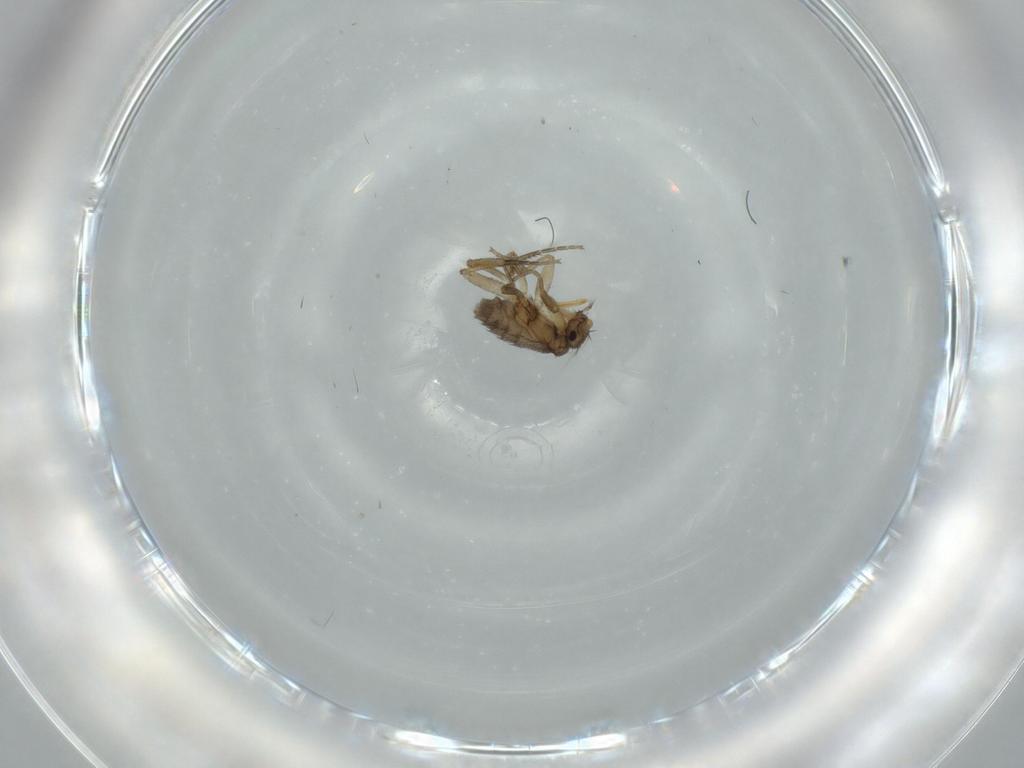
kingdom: Animalia
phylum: Arthropoda
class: Insecta
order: Diptera
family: Phoridae
